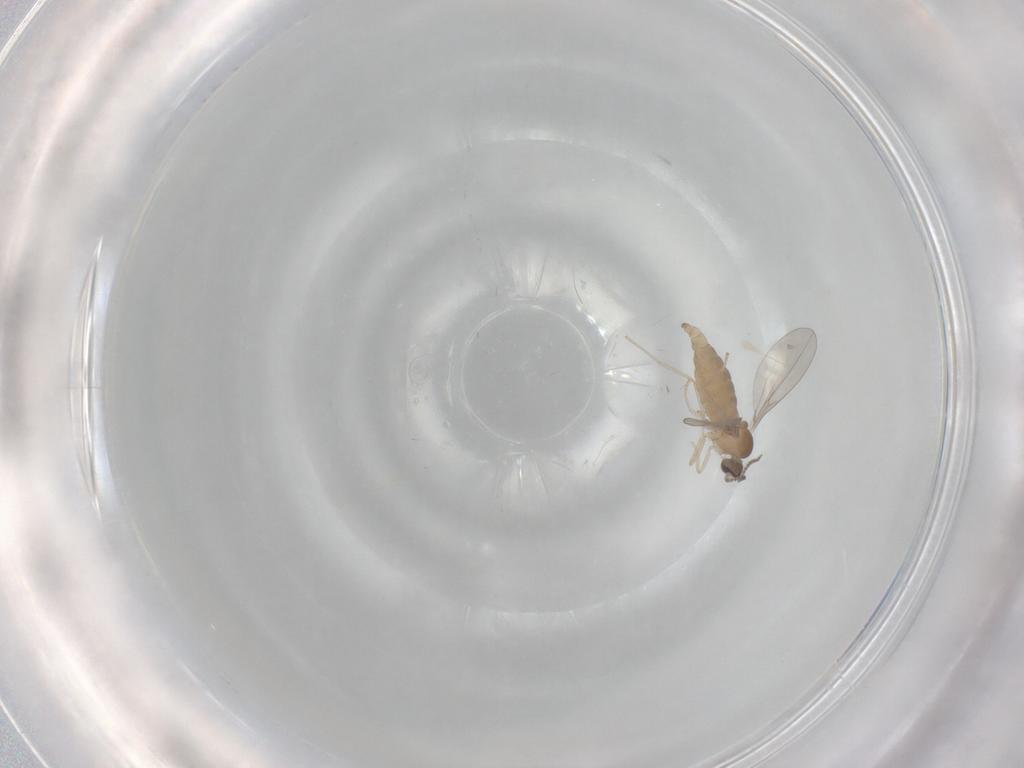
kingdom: Animalia
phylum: Arthropoda
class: Insecta
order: Diptera
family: Cecidomyiidae
